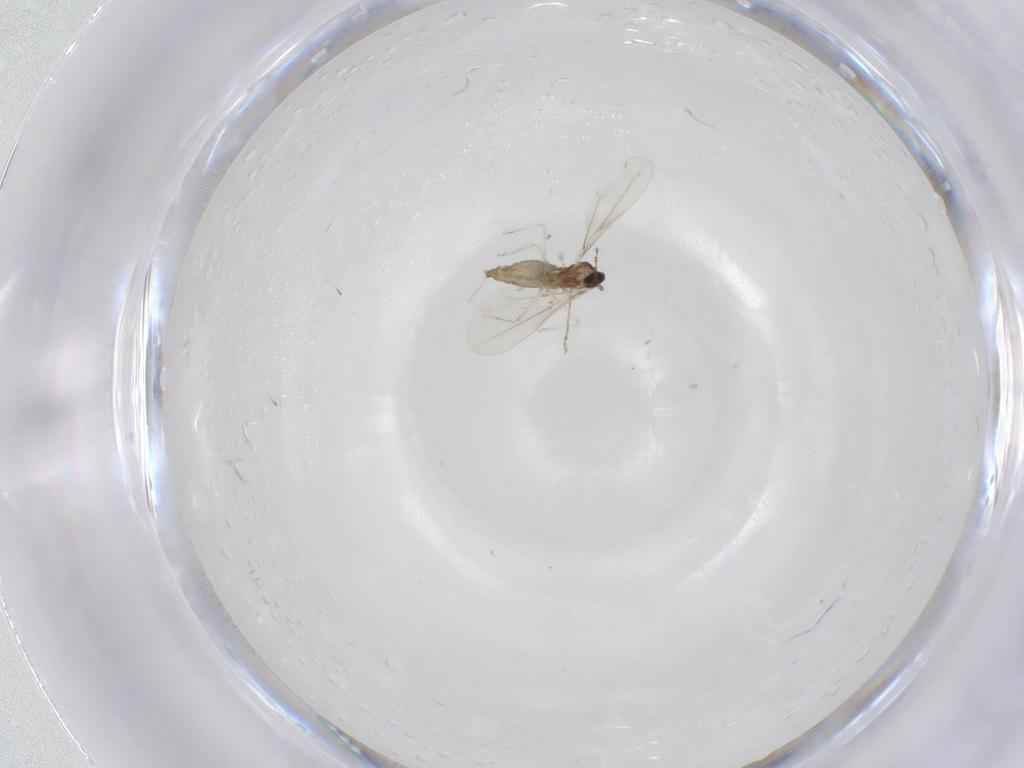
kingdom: Animalia
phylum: Arthropoda
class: Insecta
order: Diptera
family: Cecidomyiidae
